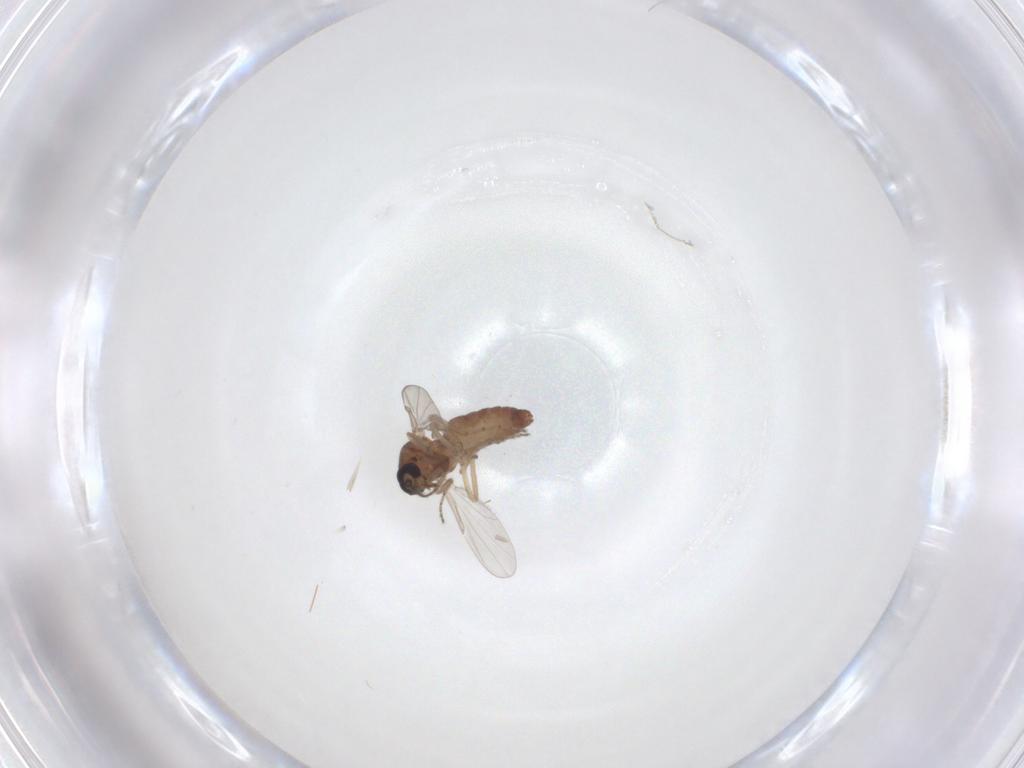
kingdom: Animalia
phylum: Arthropoda
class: Insecta
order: Diptera
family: Ceratopogonidae
